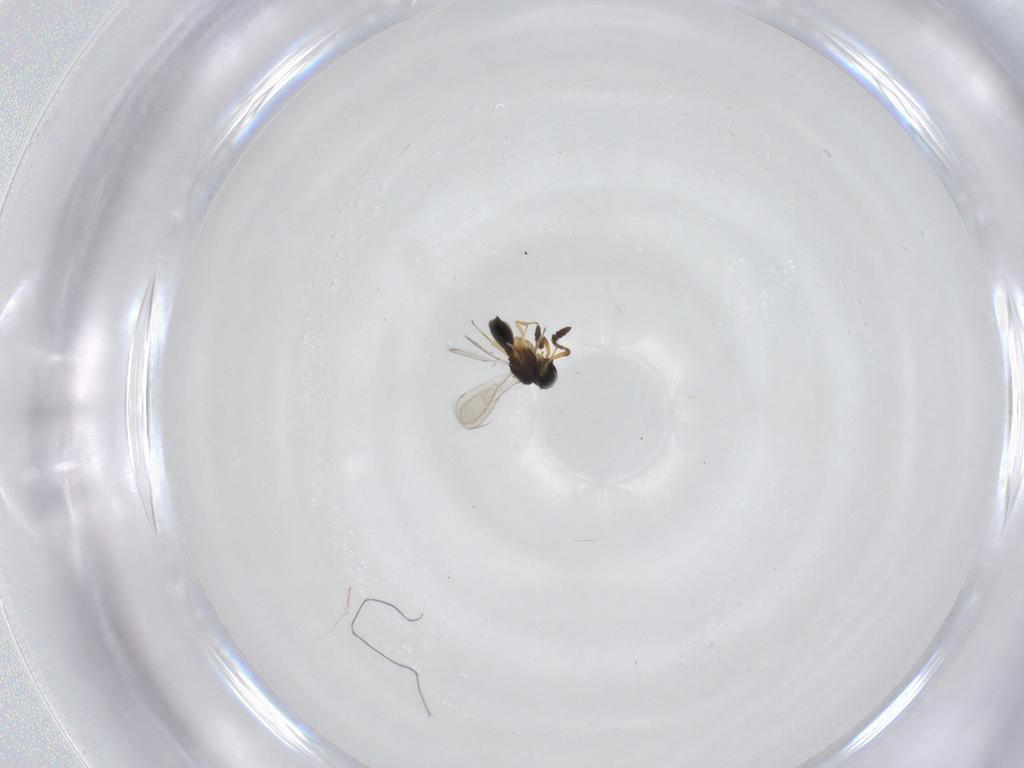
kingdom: Animalia
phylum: Arthropoda
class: Insecta
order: Hymenoptera
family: Scelionidae
